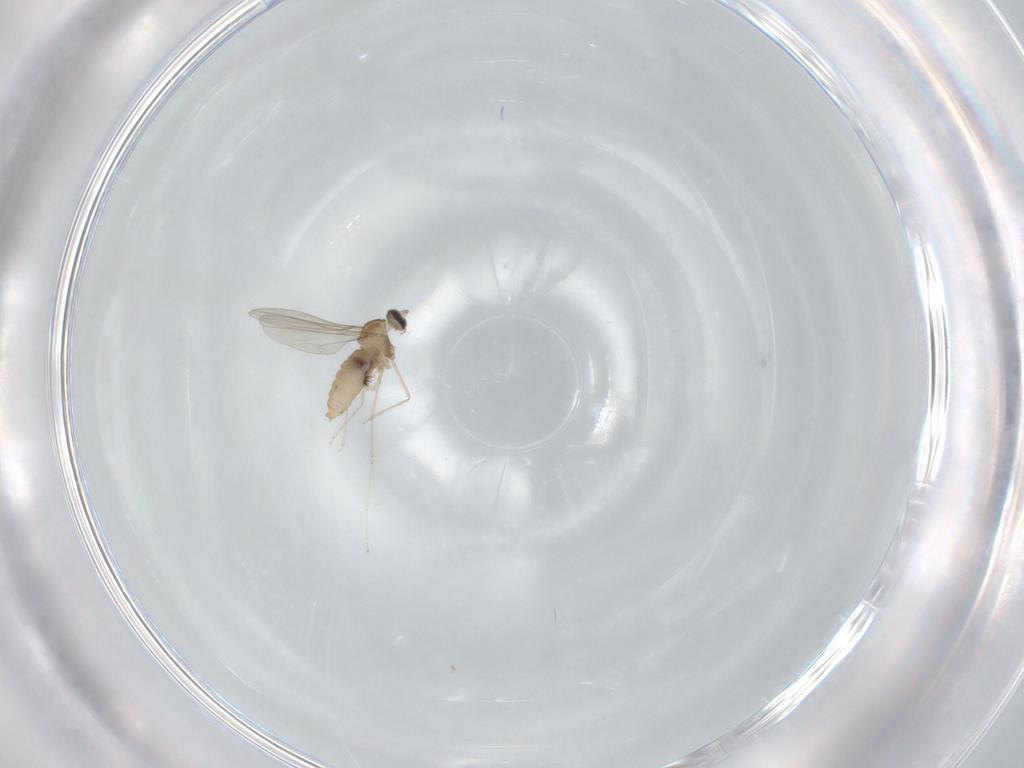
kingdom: Animalia
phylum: Arthropoda
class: Insecta
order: Diptera
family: Cecidomyiidae
